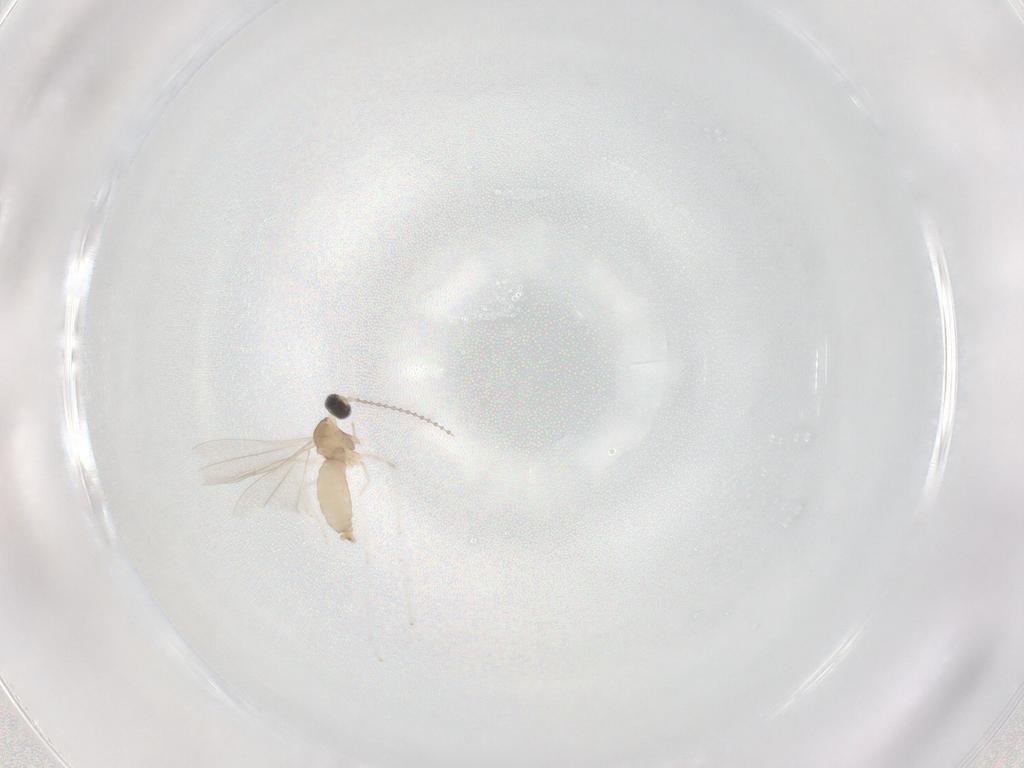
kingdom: Animalia
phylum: Arthropoda
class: Insecta
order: Diptera
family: Cecidomyiidae
